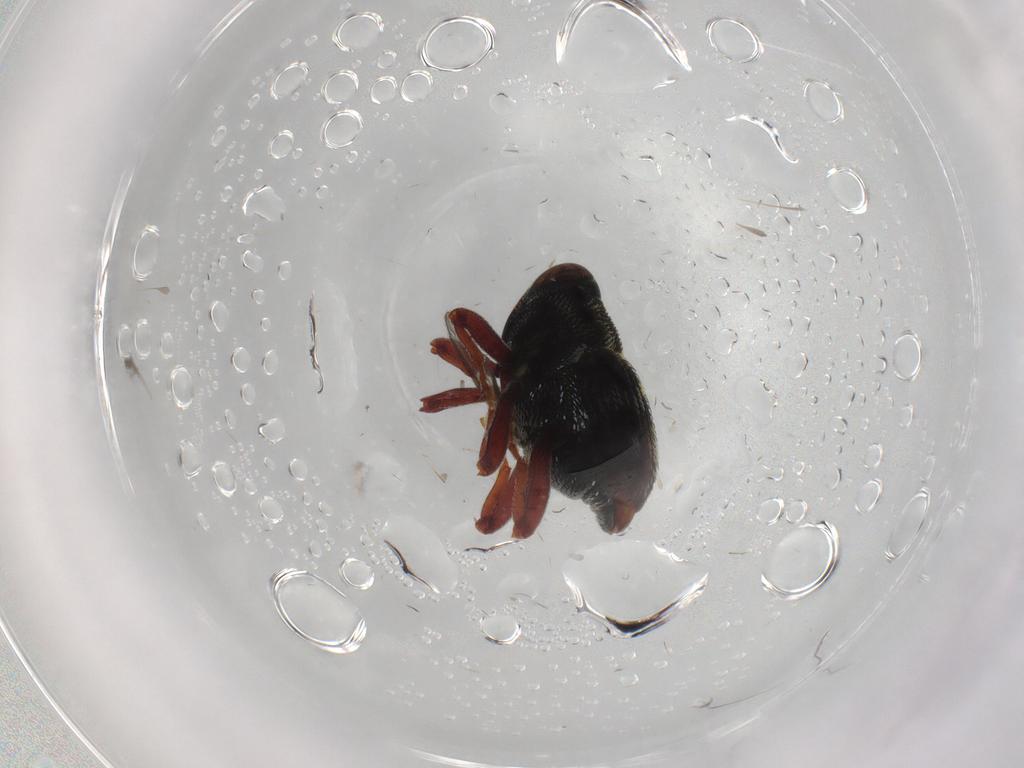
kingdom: Animalia
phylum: Arthropoda
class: Insecta
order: Coleoptera
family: Curculionidae
